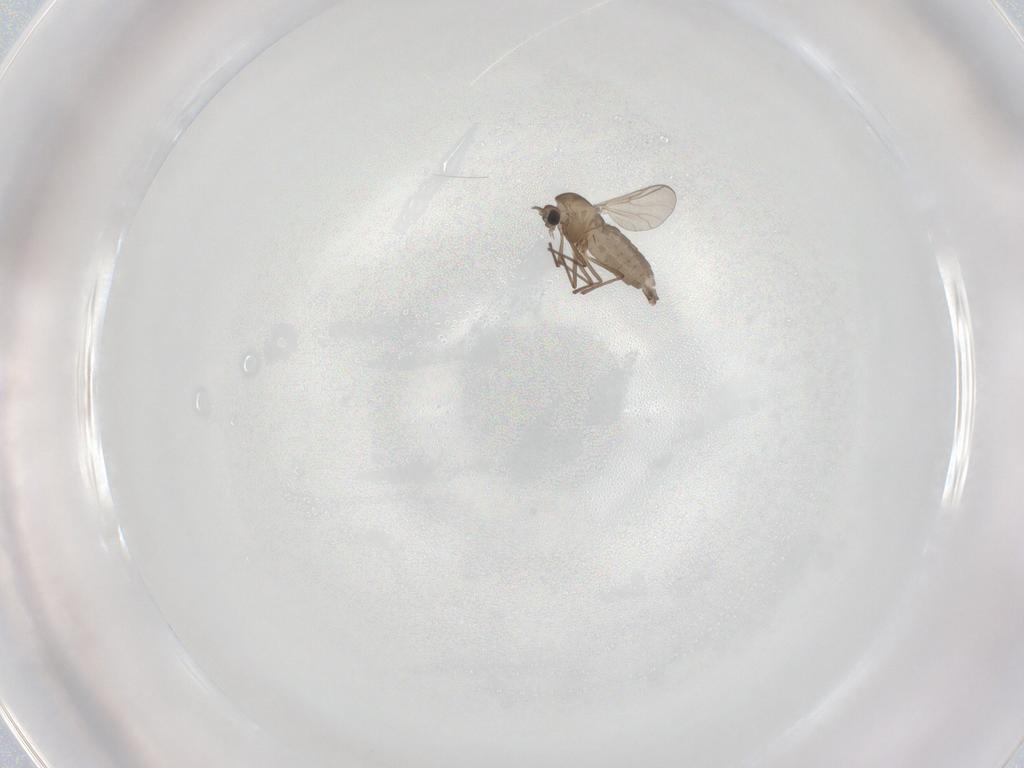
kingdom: Animalia
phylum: Arthropoda
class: Insecta
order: Diptera
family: Chironomidae
